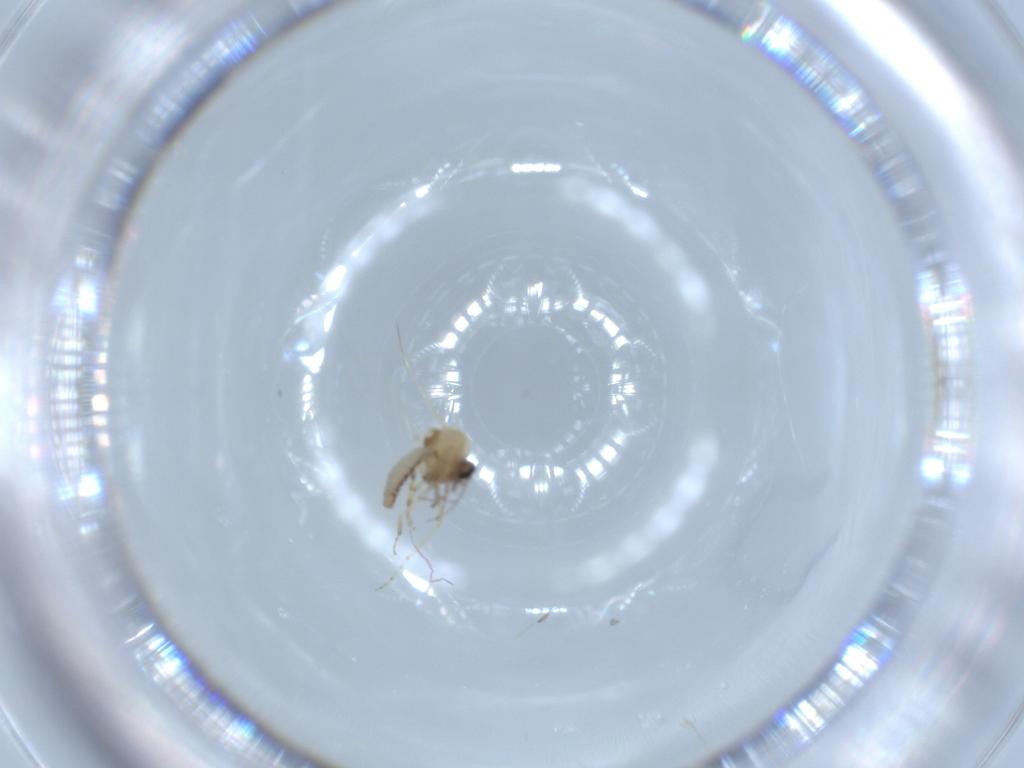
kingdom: Animalia
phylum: Arthropoda
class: Insecta
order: Diptera
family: Ceratopogonidae
